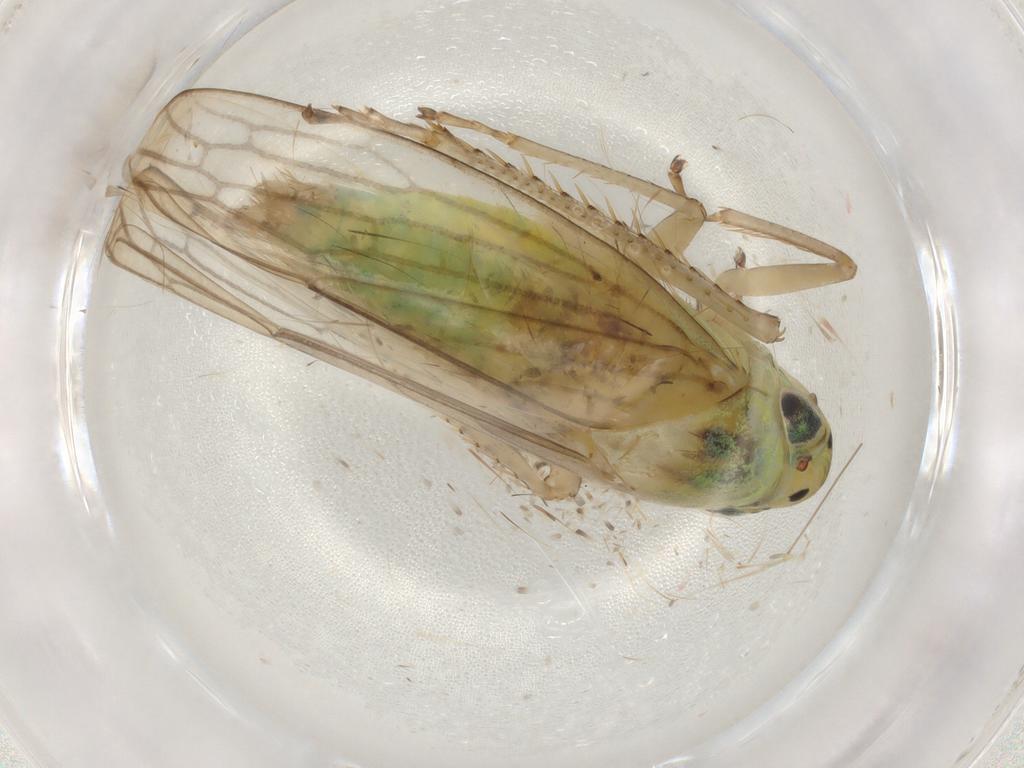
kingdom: Animalia
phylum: Arthropoda
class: Insecta
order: Hemiptera
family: Cicadellidae
